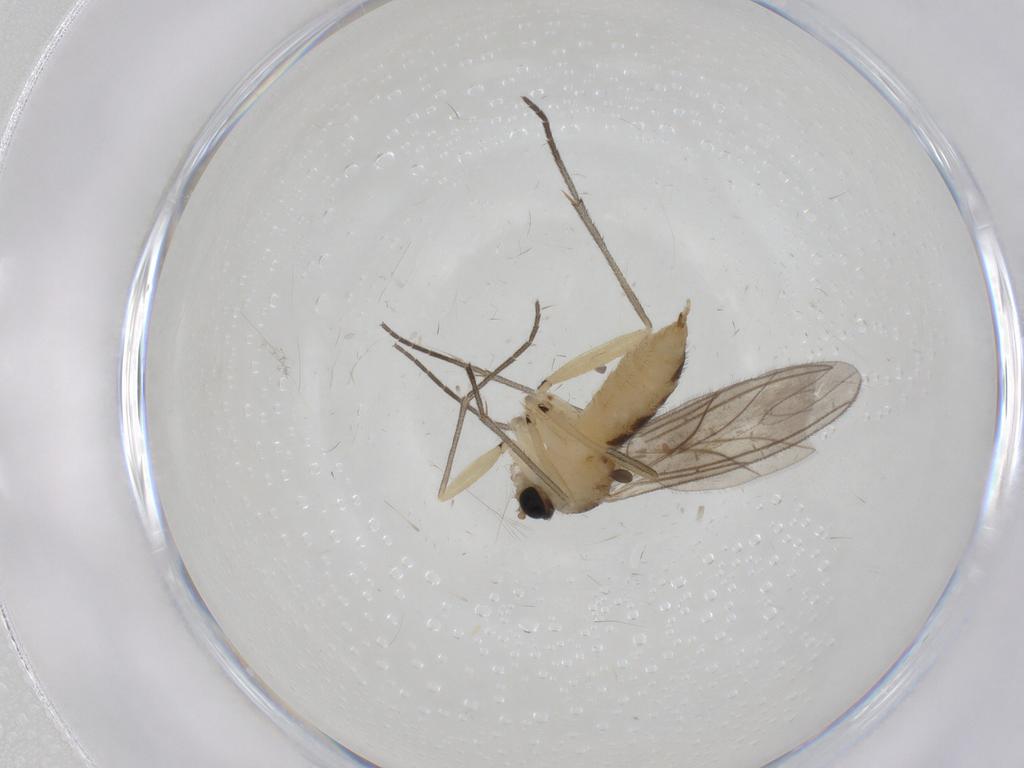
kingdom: Animalia
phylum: Arthropoda
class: Insecta
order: Diptera
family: Sciaridae
